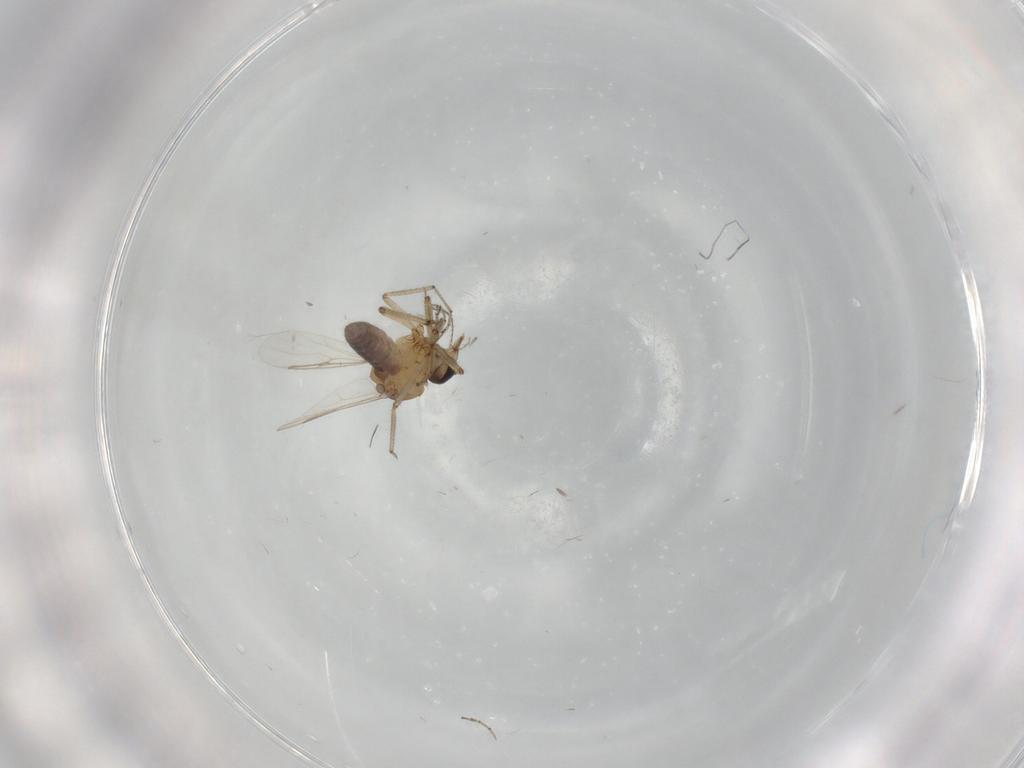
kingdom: Animalia
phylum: Arthropoda
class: Insecta
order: Diptera
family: Ceratopogonidae
